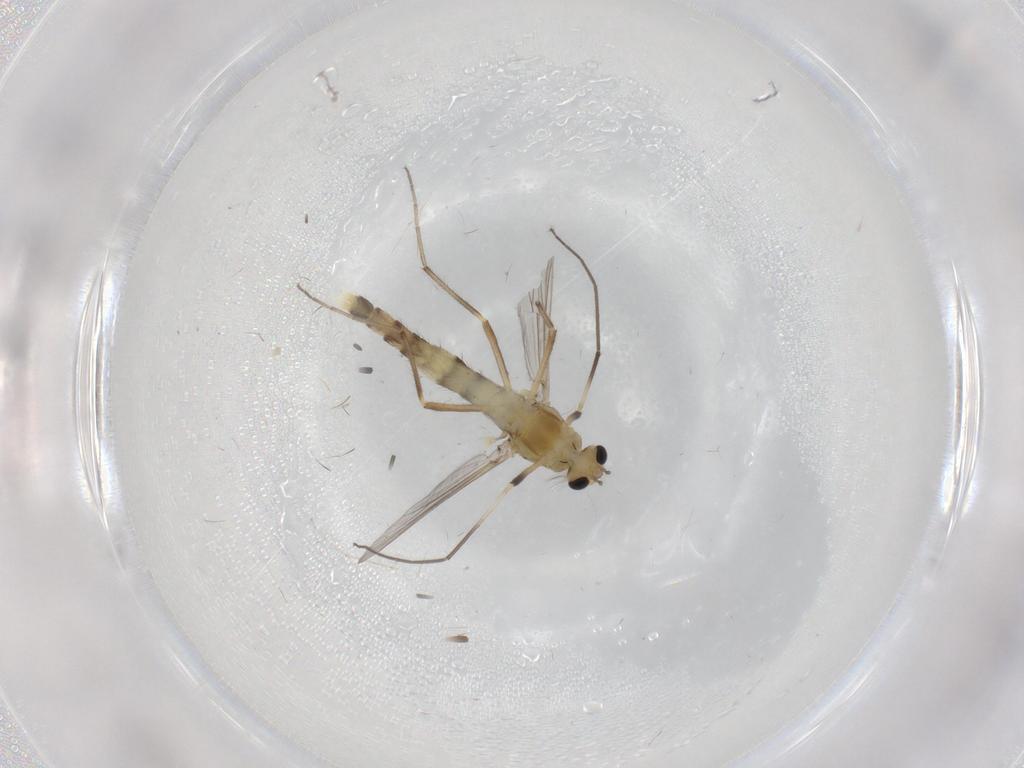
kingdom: Animalia
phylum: Arthropoda
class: Insecta
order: Diptera
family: Chironomidae
